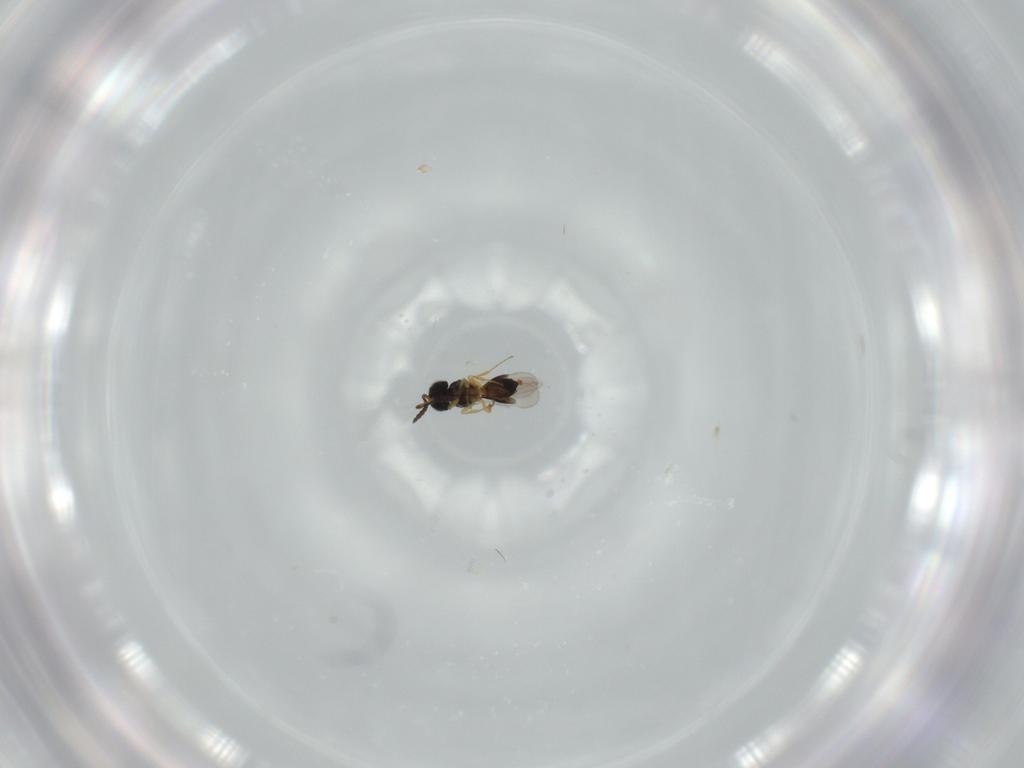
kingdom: Animalia
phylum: Arthropoda
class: Insecta
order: Hymenoptera
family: Scelionidae
